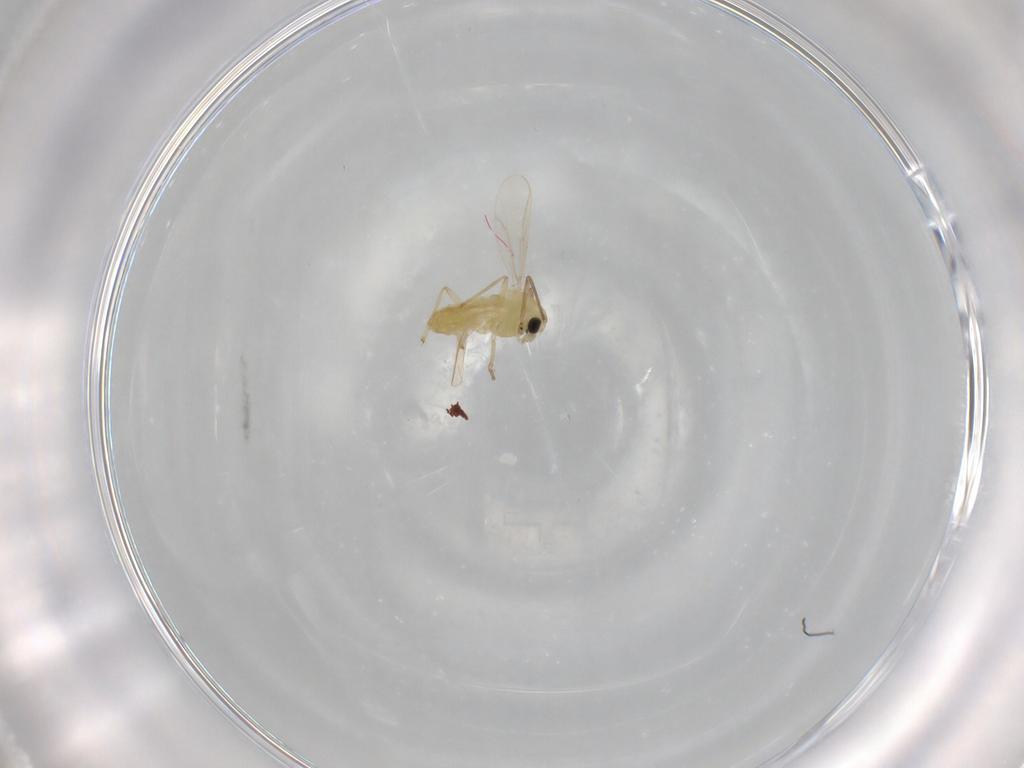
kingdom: Animalia
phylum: Arthropoda
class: Insecta
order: Diptera
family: Chironomidae
